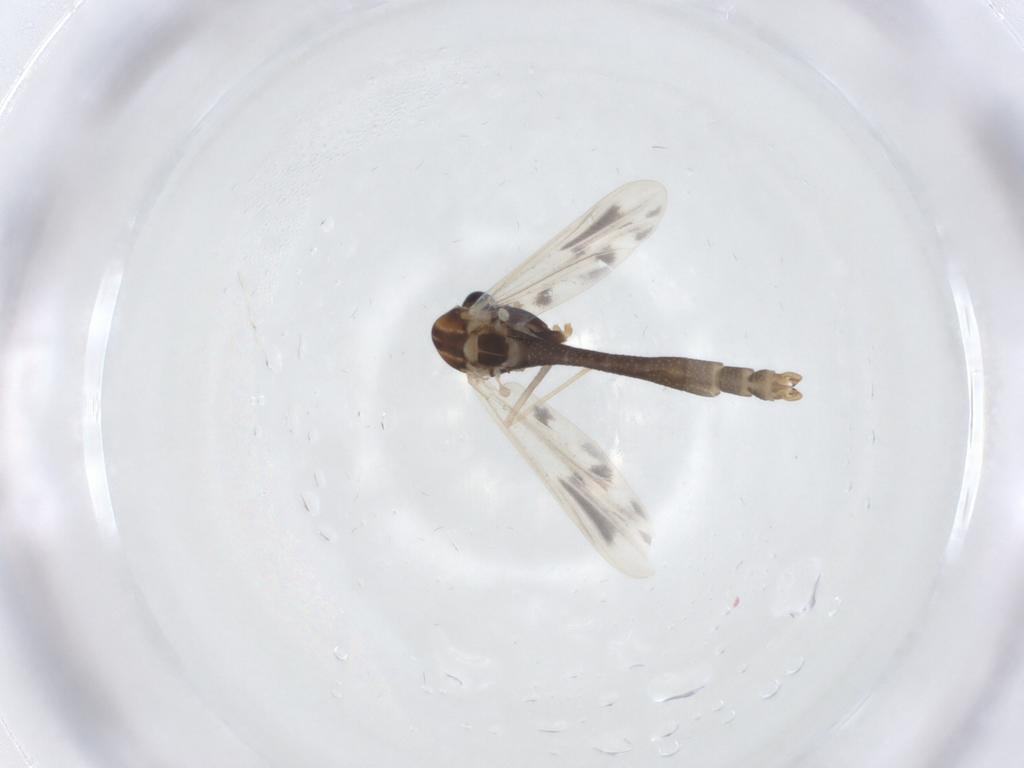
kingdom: Animalia
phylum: Arthropoda
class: Insecta
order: Diptera
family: Chironomidae
